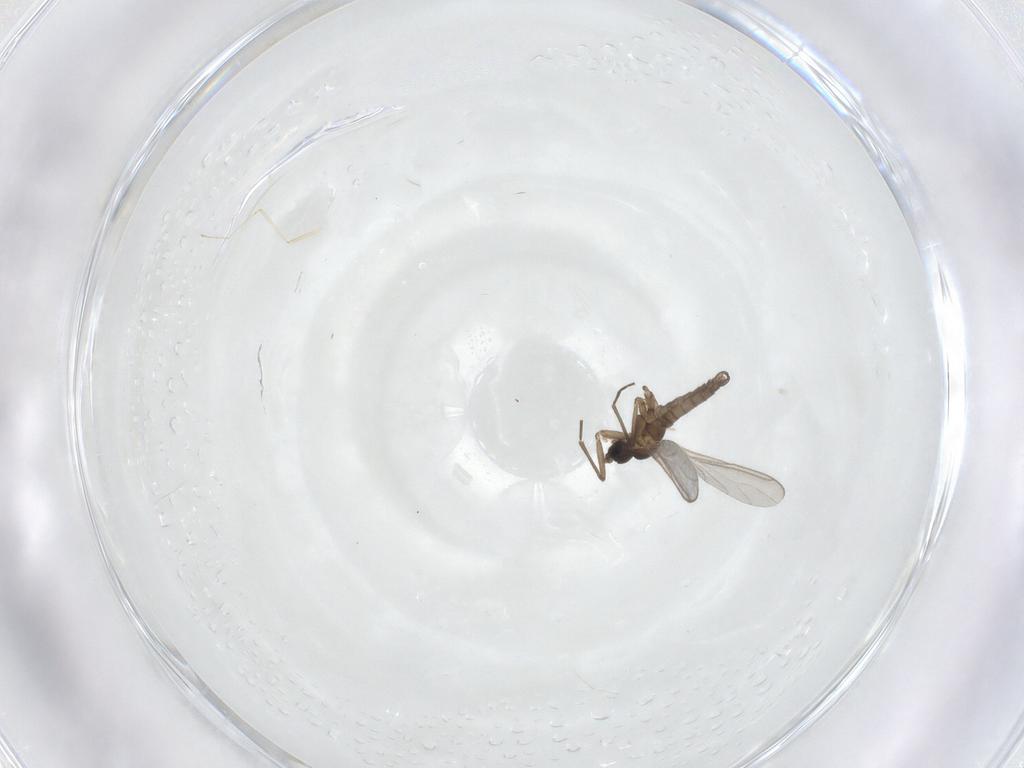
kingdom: Animalia
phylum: Arthropoda
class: Insecta
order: Diptera
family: Sciaridae
